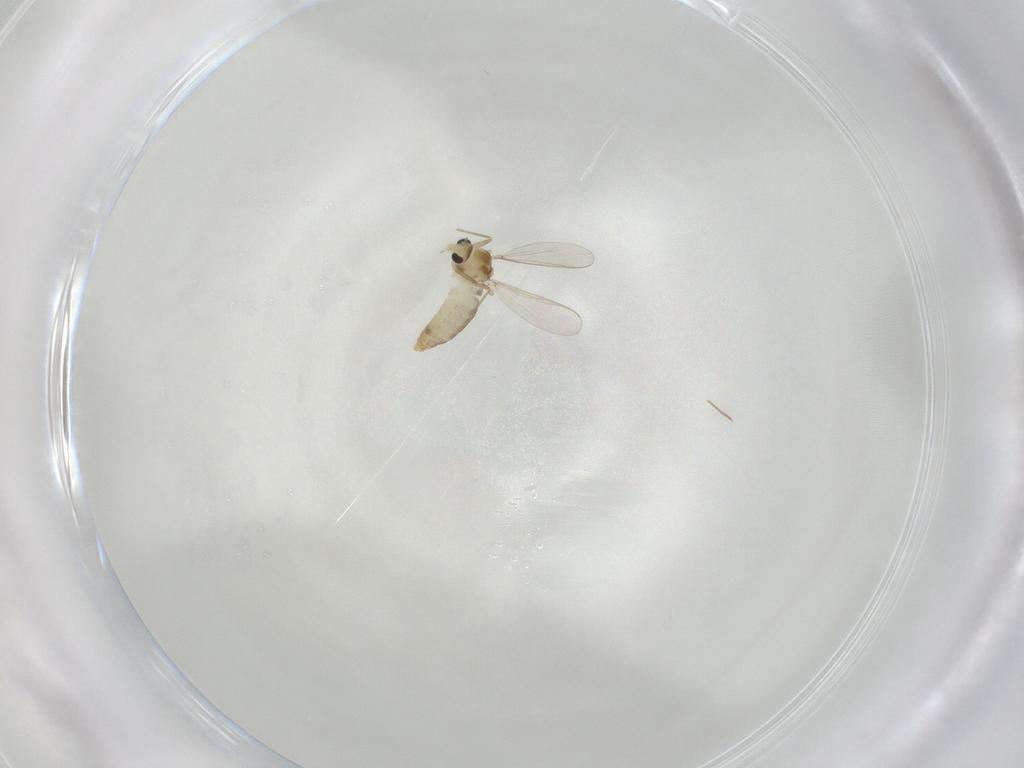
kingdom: Animalia
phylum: Arthropoda
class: Insecta
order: Diptera
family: Chironomidae
